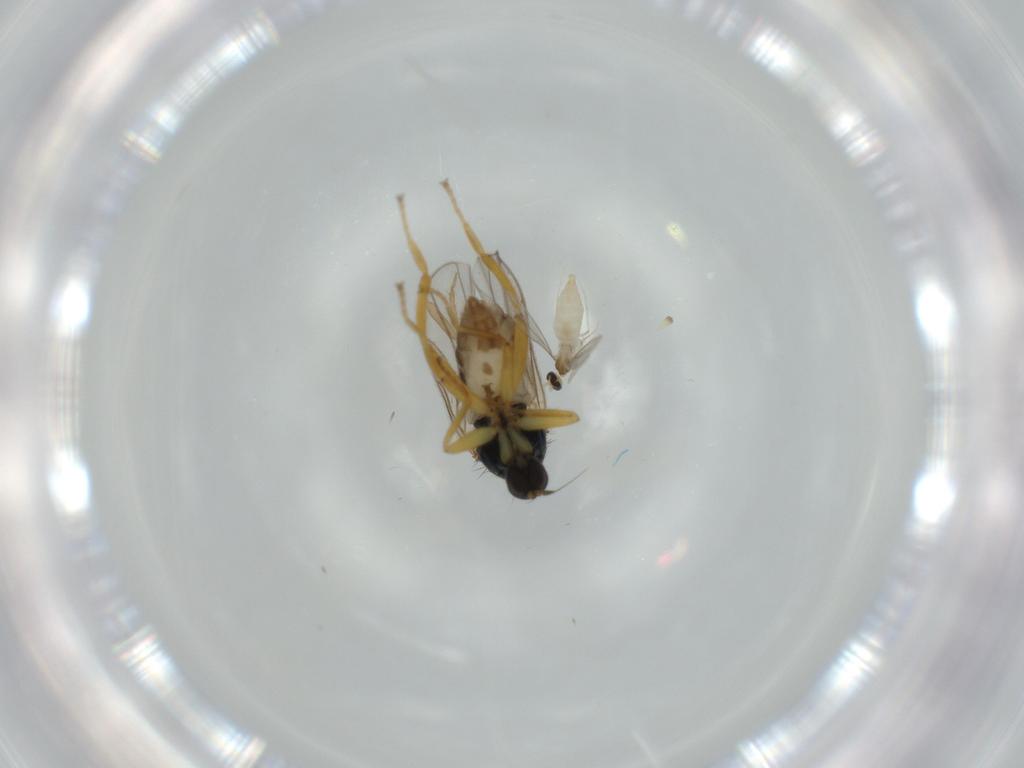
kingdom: Animalia
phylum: Arthropoda
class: Insecta
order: Diptera
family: Hybotidae
